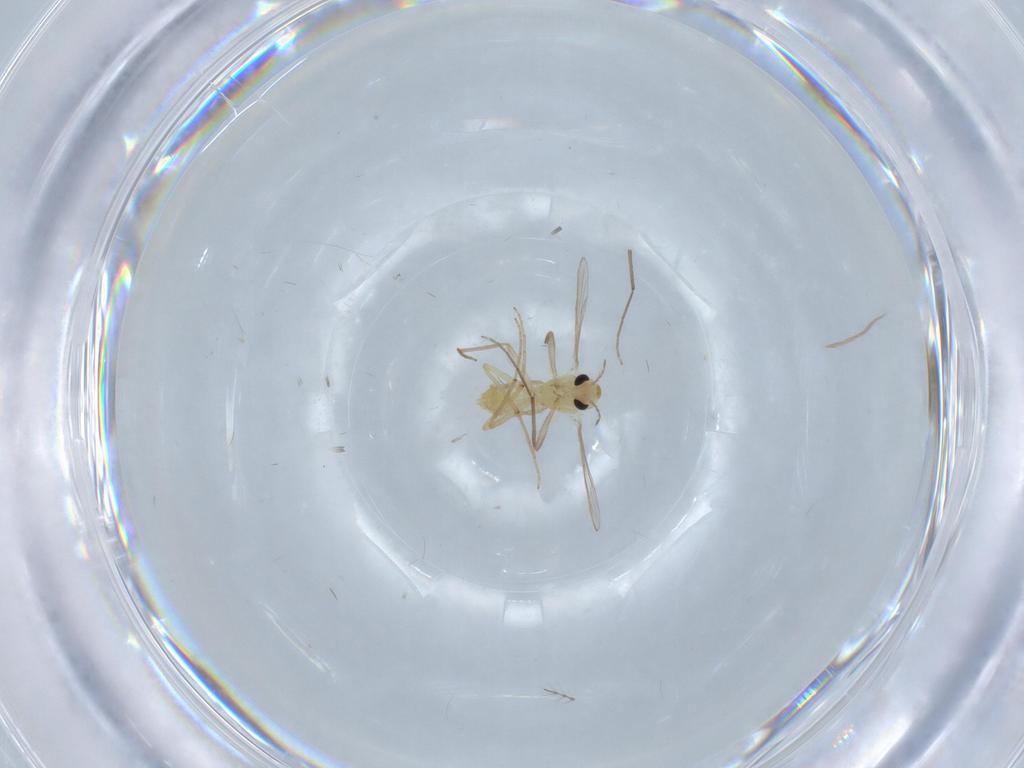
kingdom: Animalia
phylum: Arthropoda
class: Insecta
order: Diptera
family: Chironomidae
